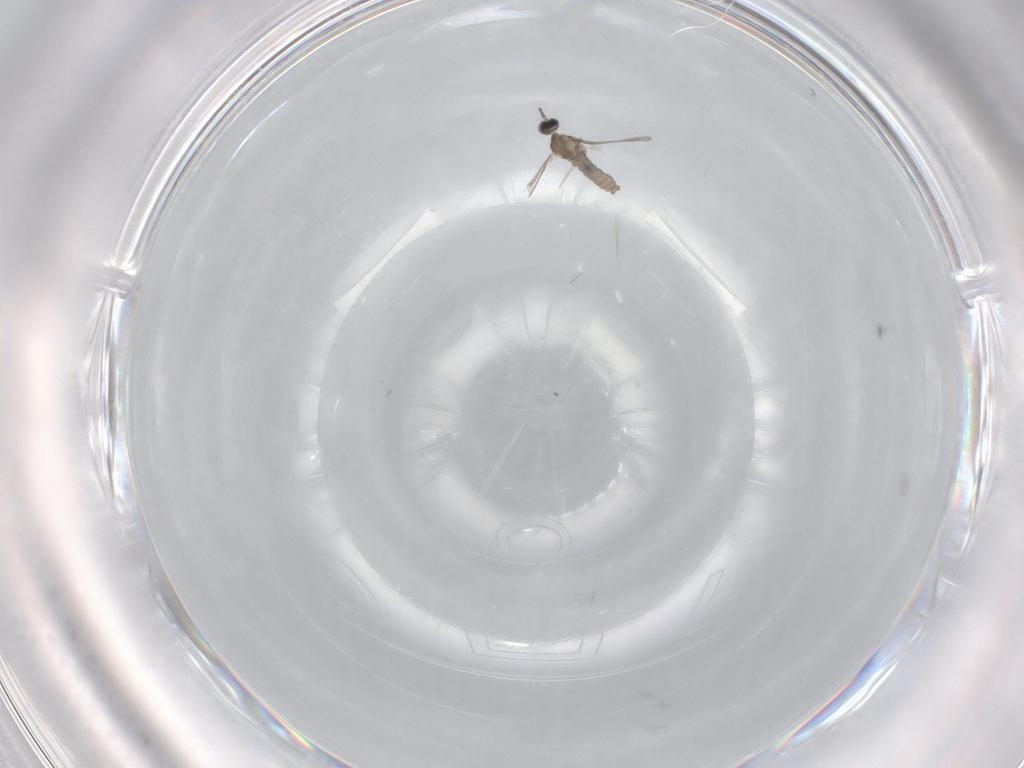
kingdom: Animalia
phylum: Arthropoda
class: Insecta
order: Diptera
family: Cecidomyiidae
